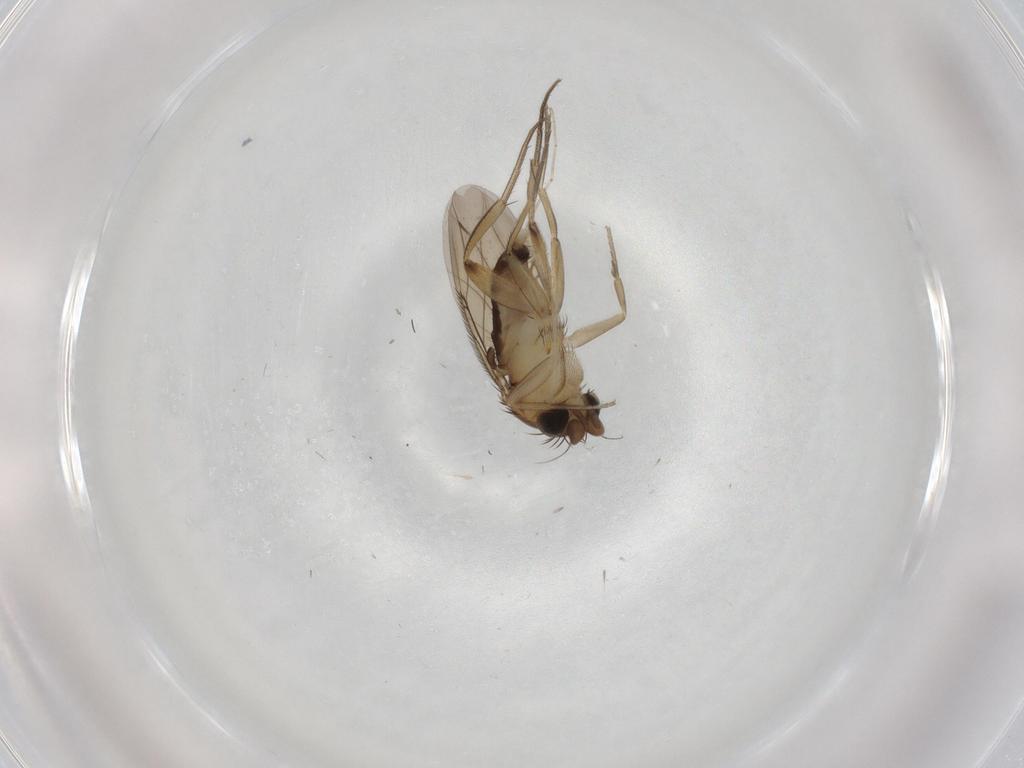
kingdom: Animalia
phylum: Arthropoda
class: Insecta
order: Diptera
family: Phoridae
